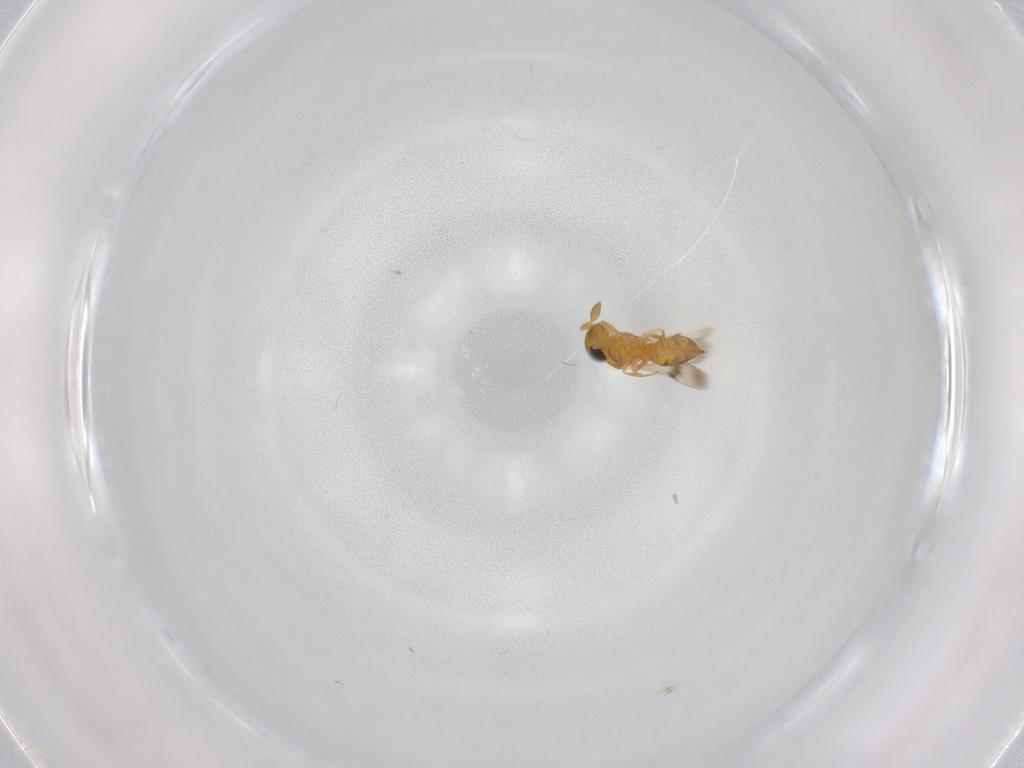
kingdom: Animalia
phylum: Arthropoda
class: Insecta
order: Hymenoptera
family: Scelionidae
